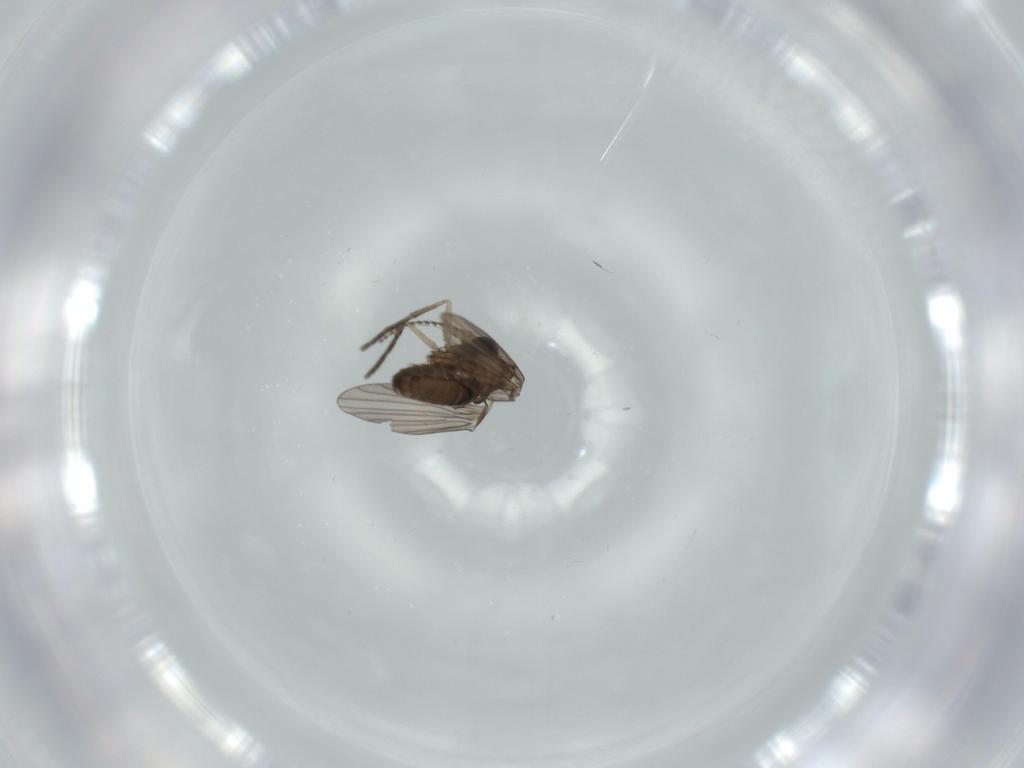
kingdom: Animalia
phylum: Arthropoda
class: Insecta
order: Diptera
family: Psychodidae
